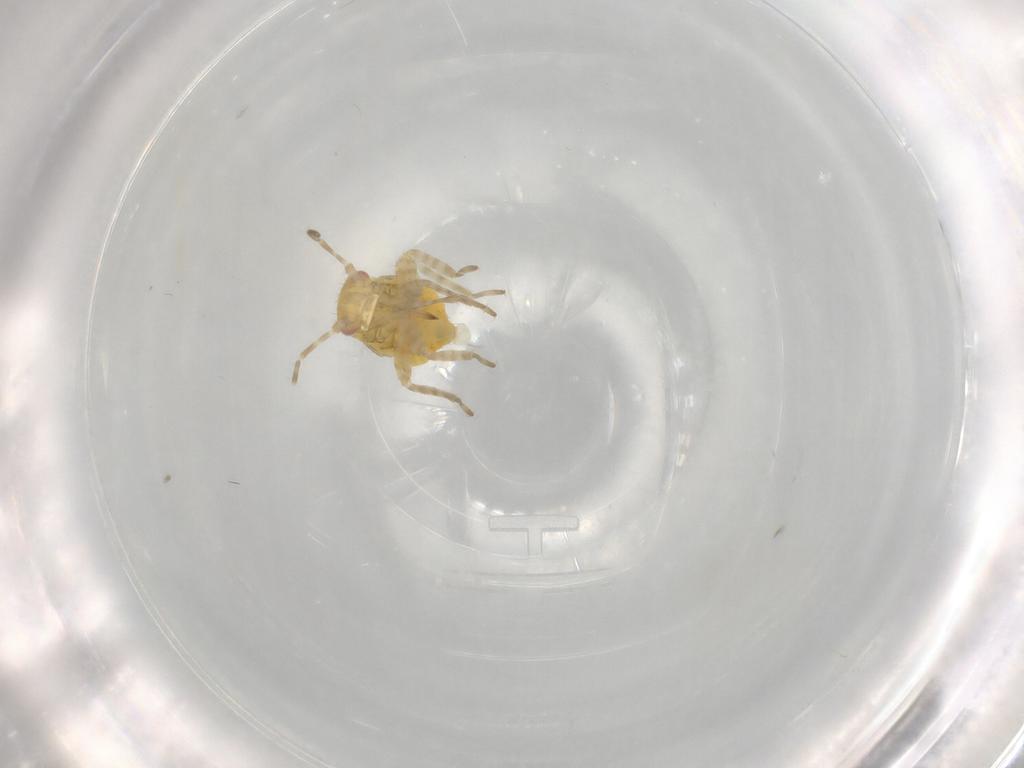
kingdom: Animalia
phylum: Arthropoda
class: Insecta
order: Hemiptera
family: Miridae
